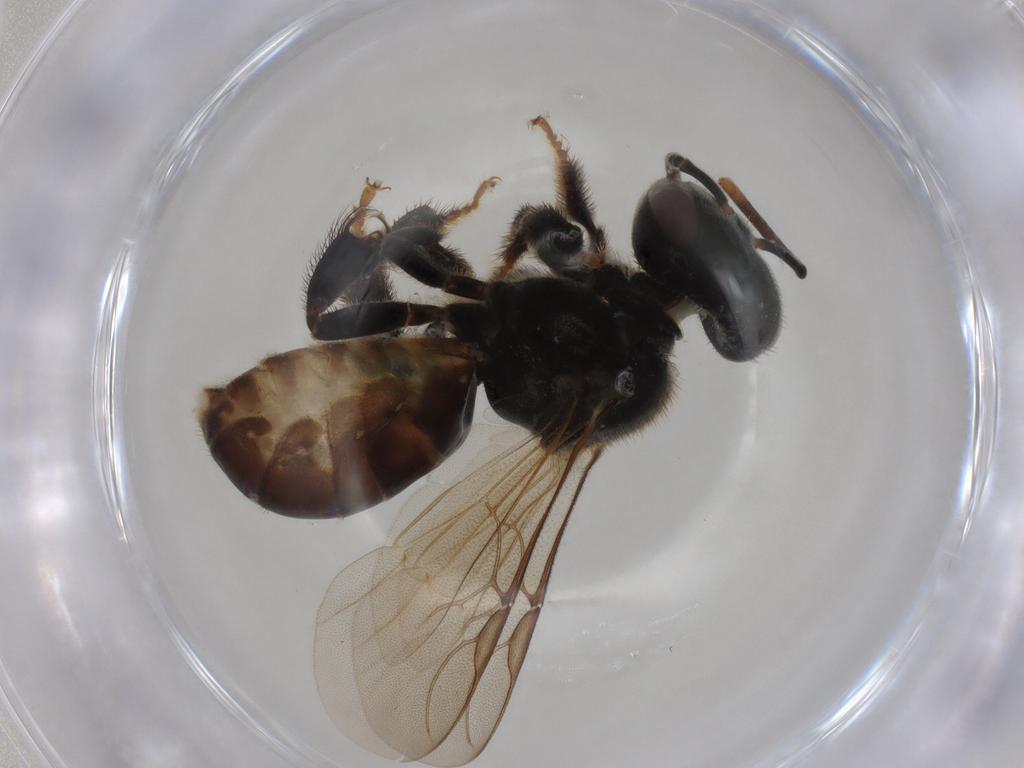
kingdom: Animalia
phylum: Arthropoda
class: Insecta
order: Hymenoptera
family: Apidae
